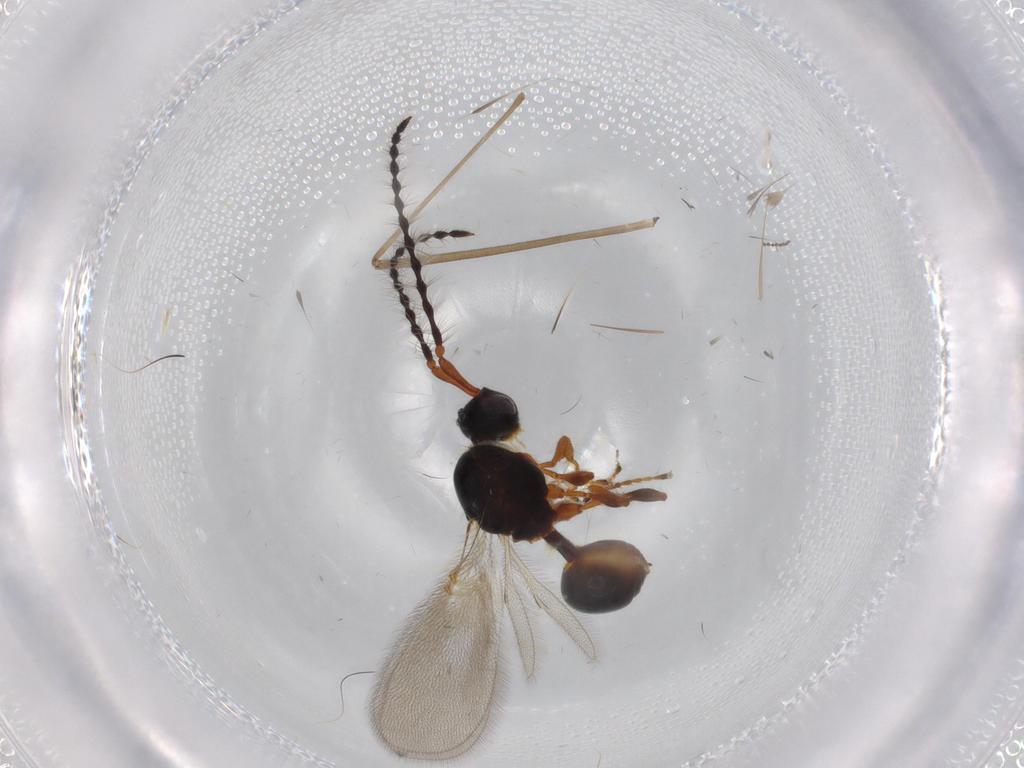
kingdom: Animalia
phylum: Arthropoda
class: Insecta
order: Hymenoptera
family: Diapriidae
